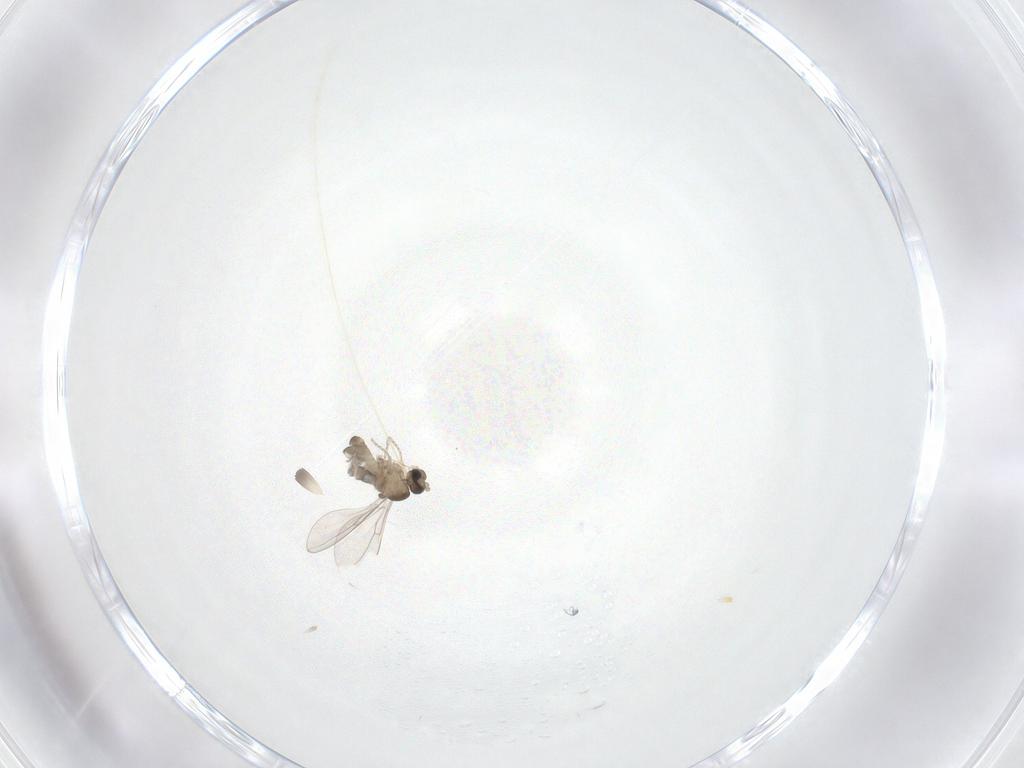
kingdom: Animalia
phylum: Arthropoda
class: Insecta
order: Diptera
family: Cecidomyiidae
